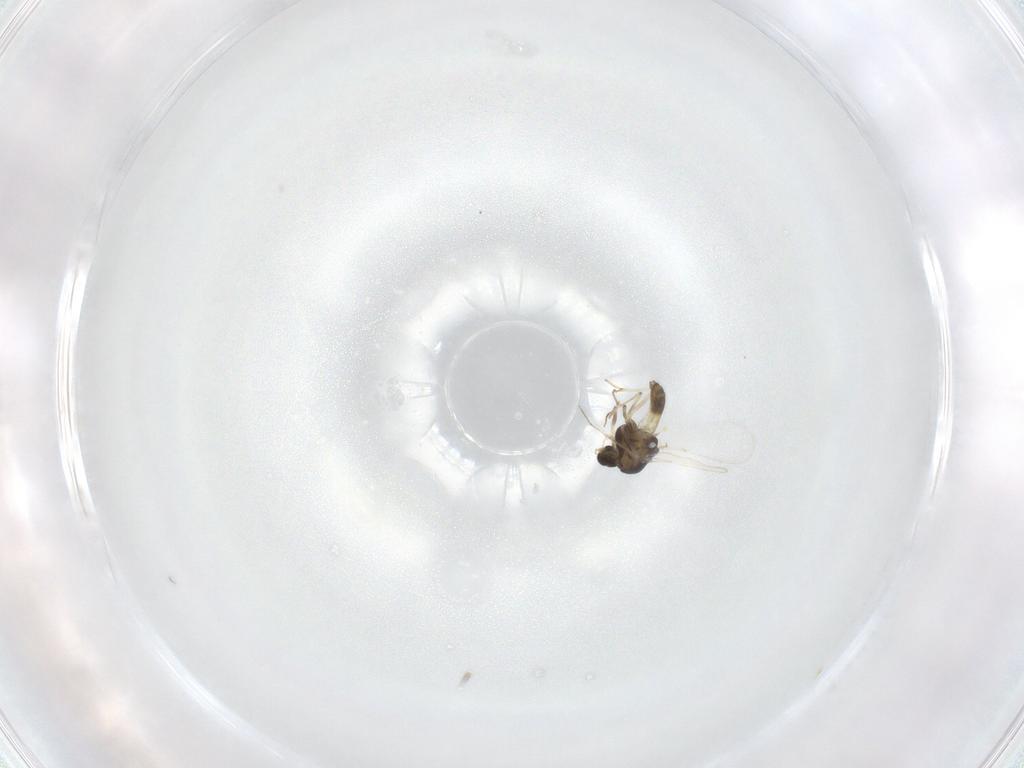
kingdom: Animalia
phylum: Arthropoda
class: Insecta
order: Diptera
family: Chironomidae
